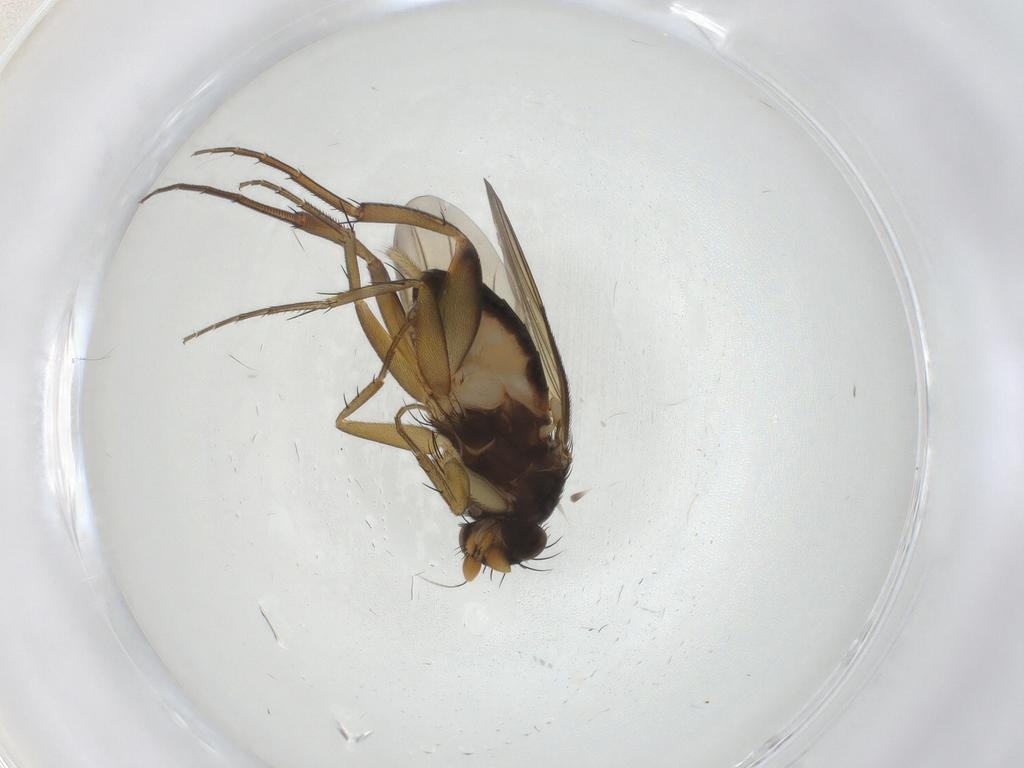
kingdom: Animalia
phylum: Arthropoda
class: Insecta
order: Diptera
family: Phoridae
